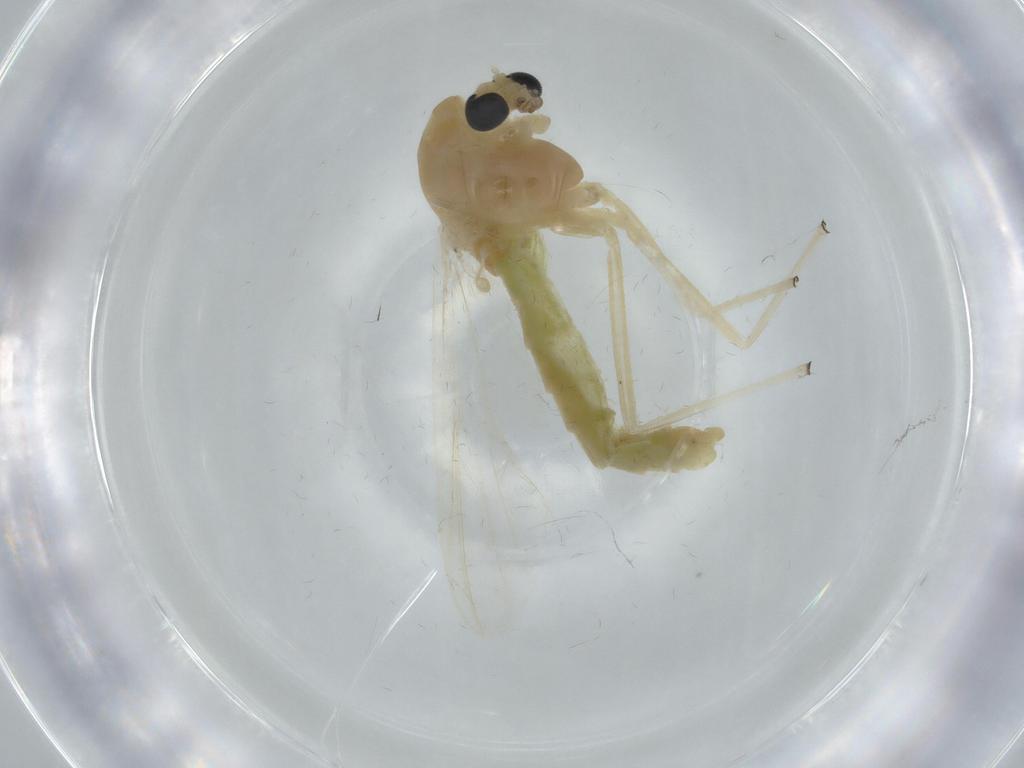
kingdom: Animalia
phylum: Arthropoda
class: Insecta
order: Diptera
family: Chironomidae
